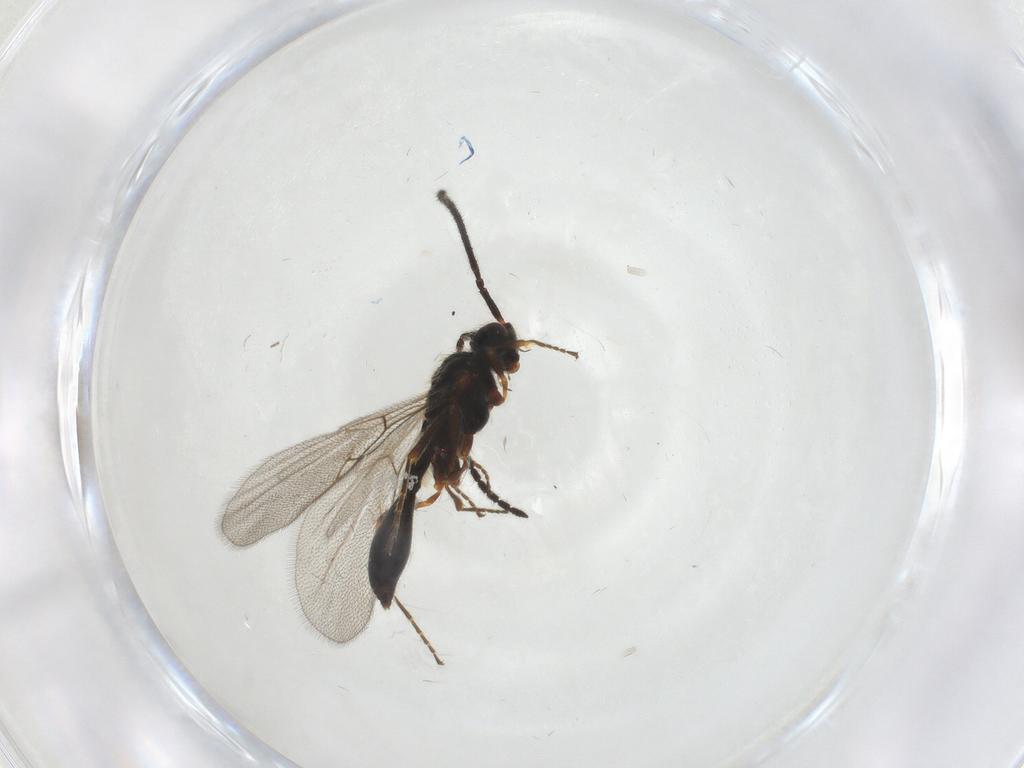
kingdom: Animalia
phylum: Arthropoda
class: Insecta
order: Hymenoptera
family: Diapriidae
